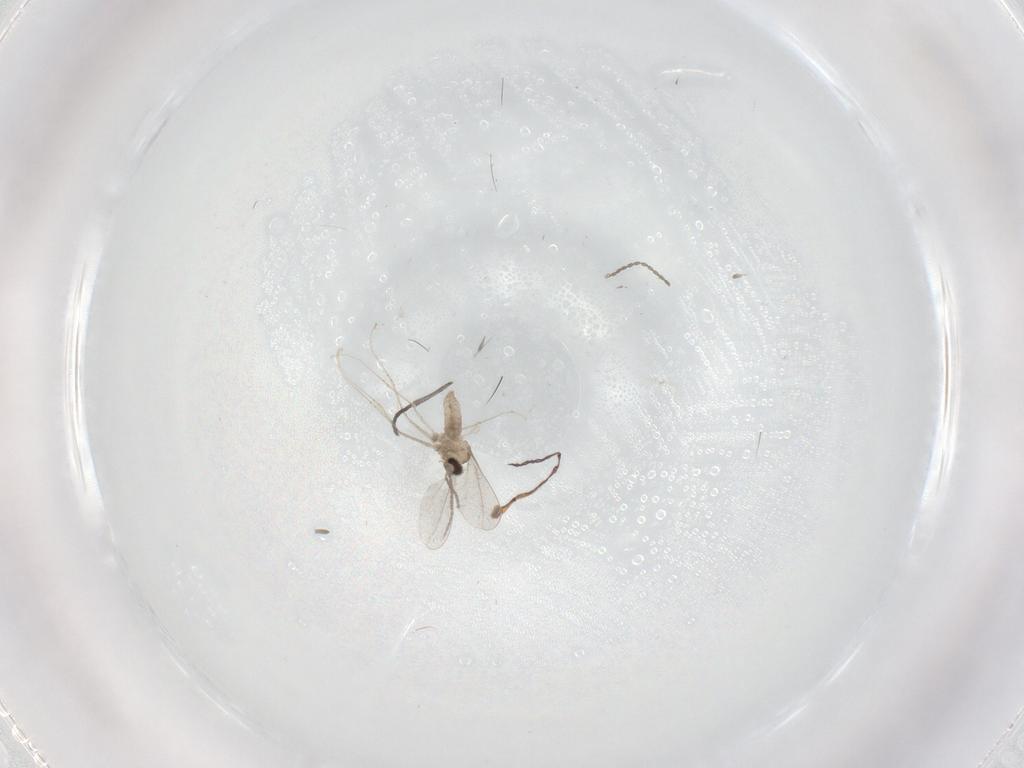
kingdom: Animalia
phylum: Arthropoda
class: Insecta
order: Diptera
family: Sciaridae
